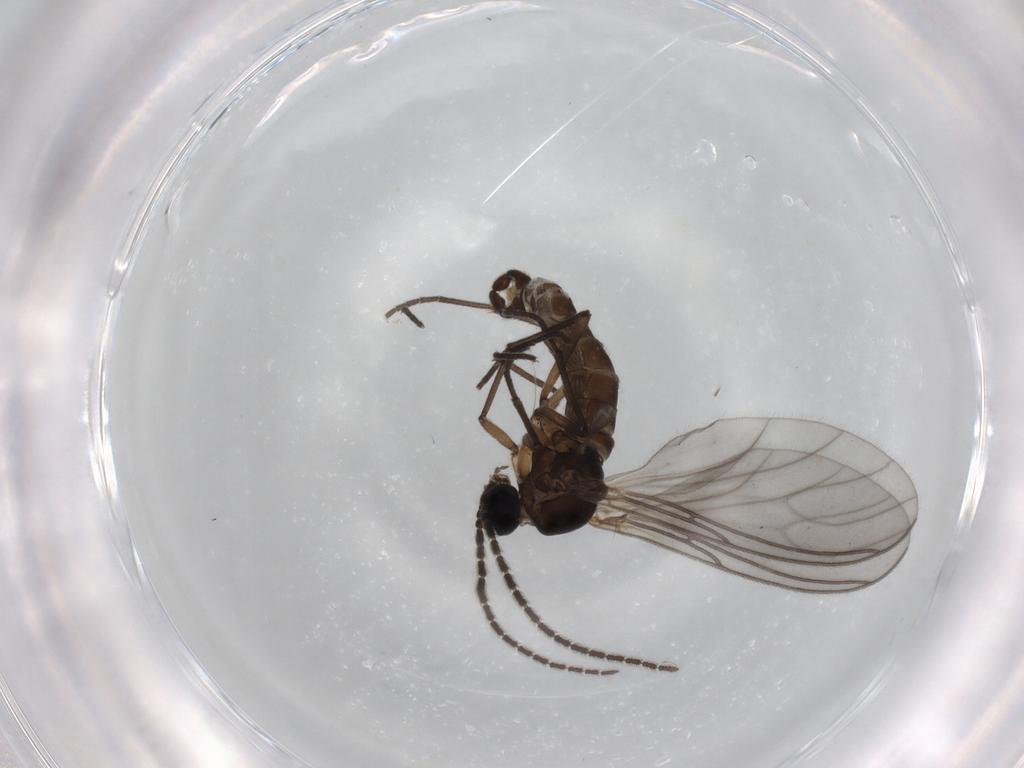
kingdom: Animalia
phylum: Arthropoda
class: Insecta
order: Diptera
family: Sciaridae
